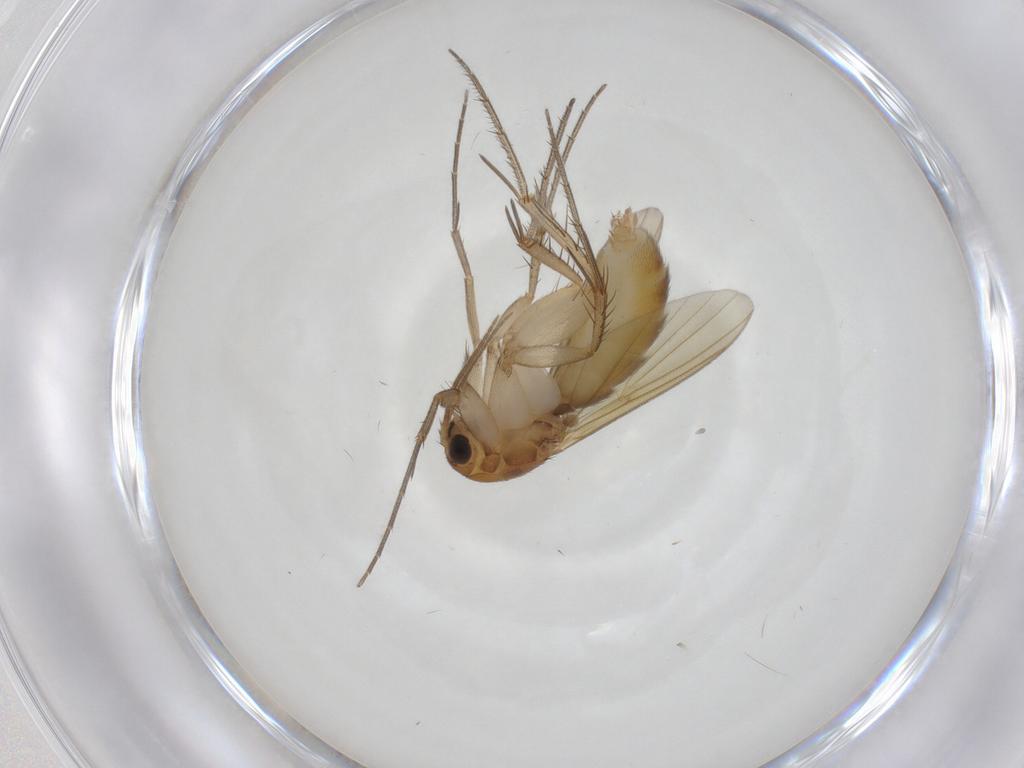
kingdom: Animalia
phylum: Arthropoda
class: Insecta
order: Diptera
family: Mycetophilidae
